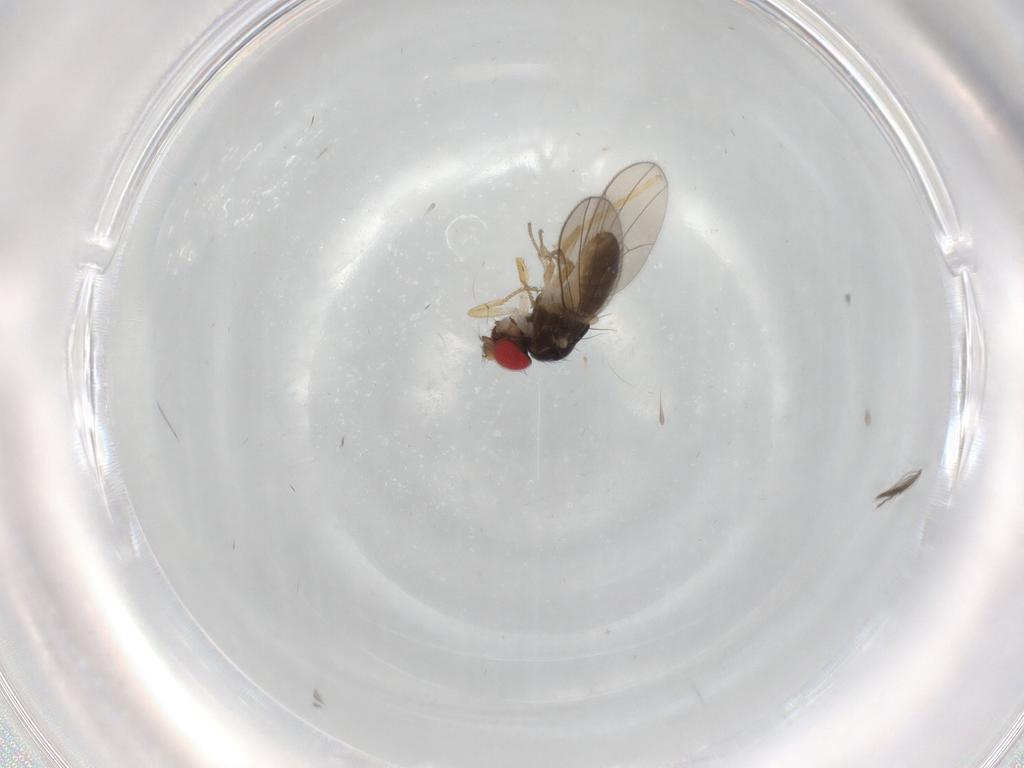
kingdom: Animalia
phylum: Arthropoda
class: Insecta
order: Diptera
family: Drosophilidae
